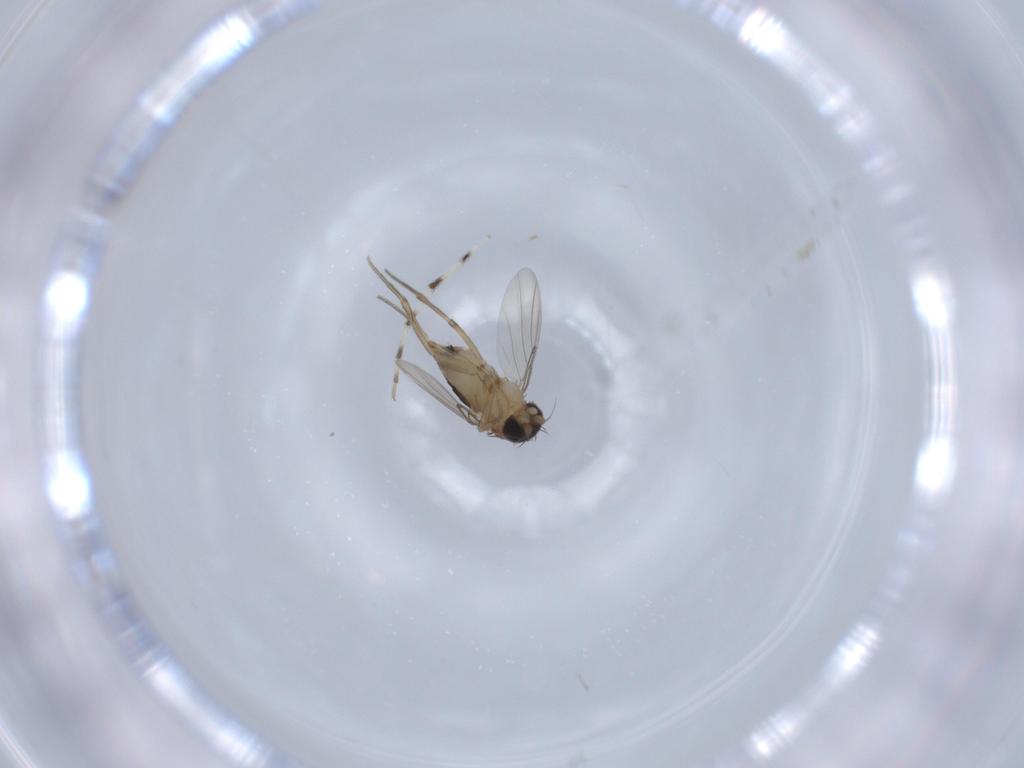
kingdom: Animalia
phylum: Arthropoda
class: Insecta
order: Diptera
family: Phoridae
